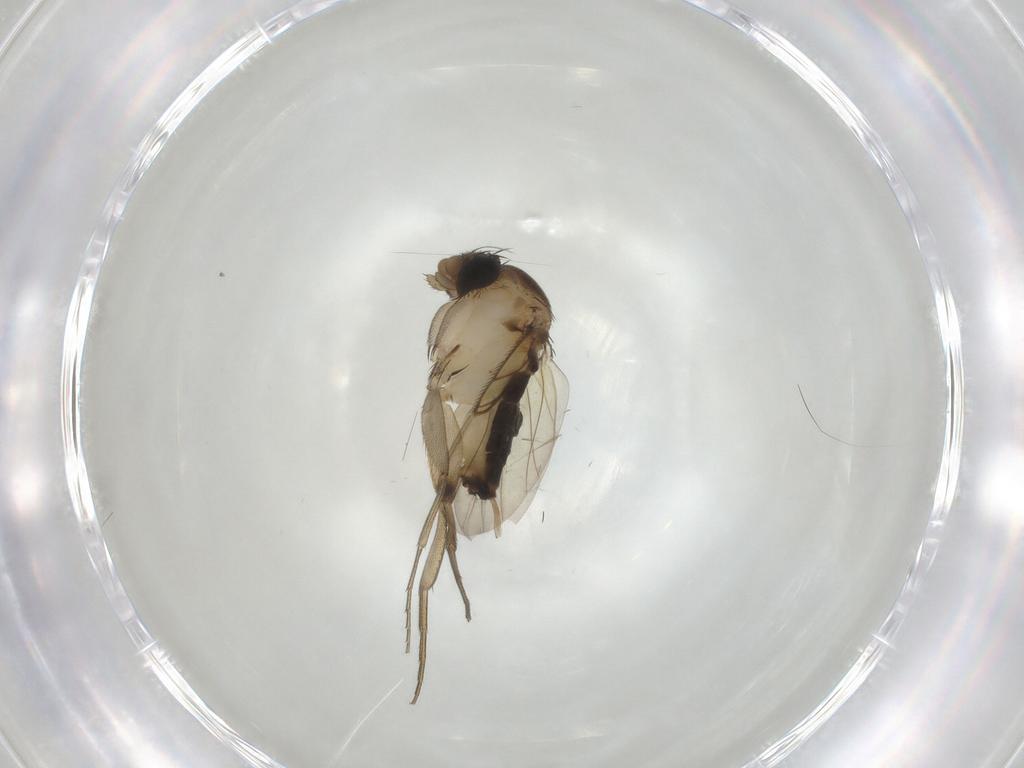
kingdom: Animalia
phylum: Arthropoda
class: Insecta
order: Diptera
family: Phoridae
